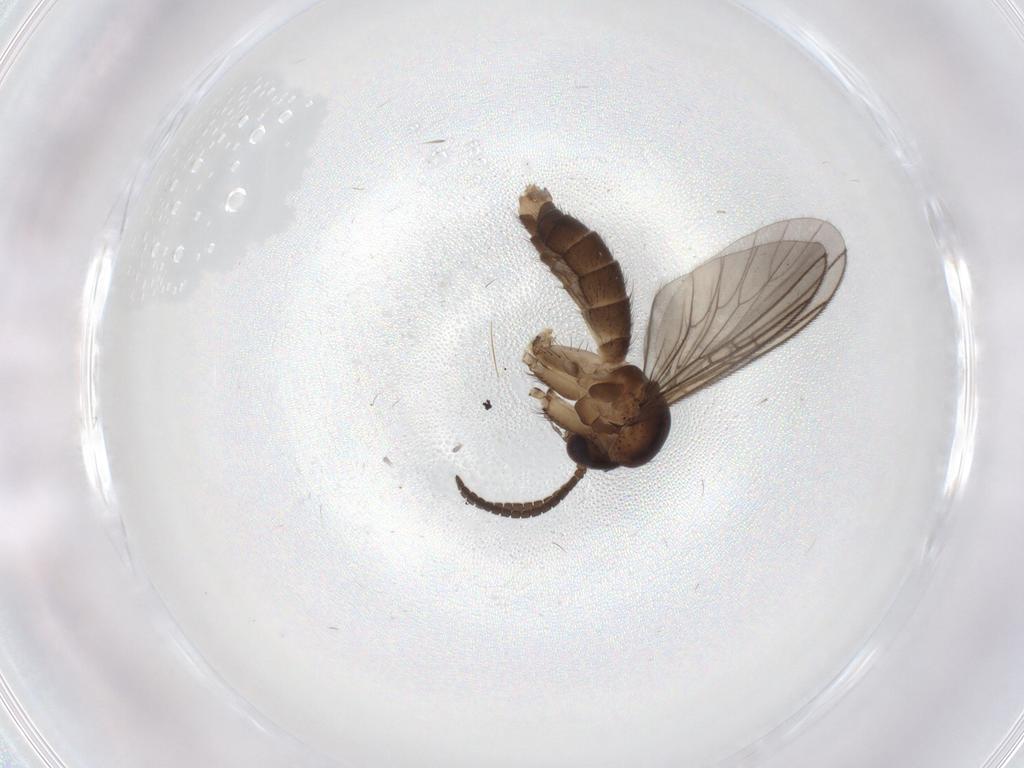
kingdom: Animalia
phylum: Arthropoda
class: Insecta
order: Diptera
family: Cecidomyiidae
